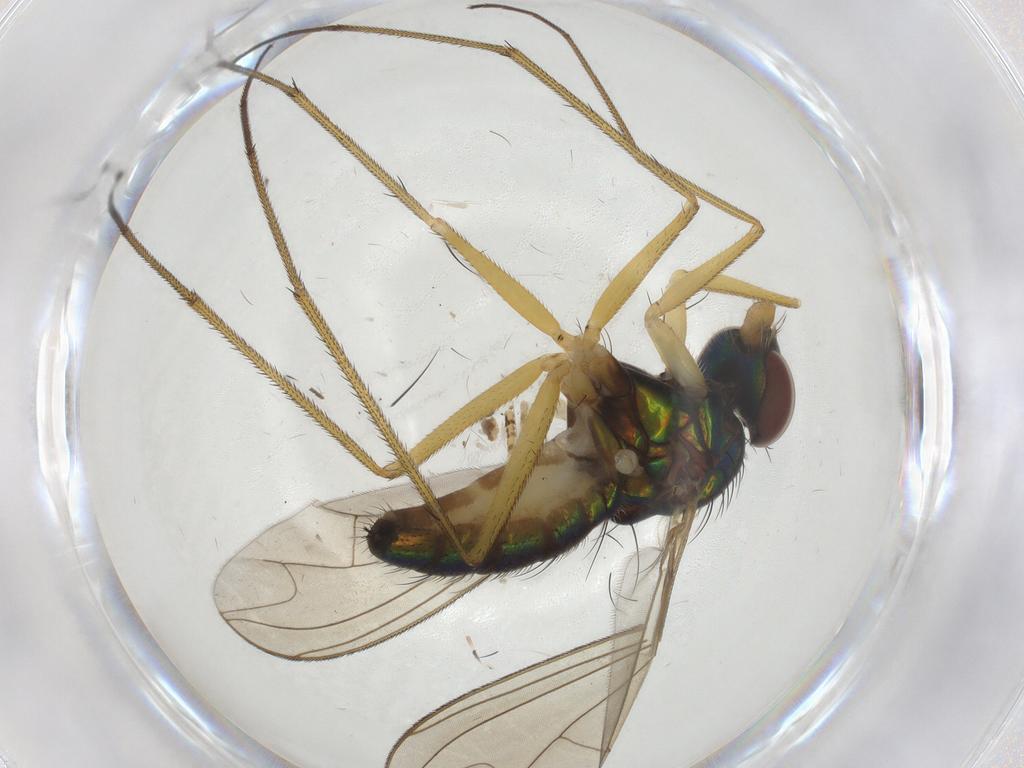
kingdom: Animalia
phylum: Arthropoda
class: Insecta
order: Diptera
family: Dolichopodidae
